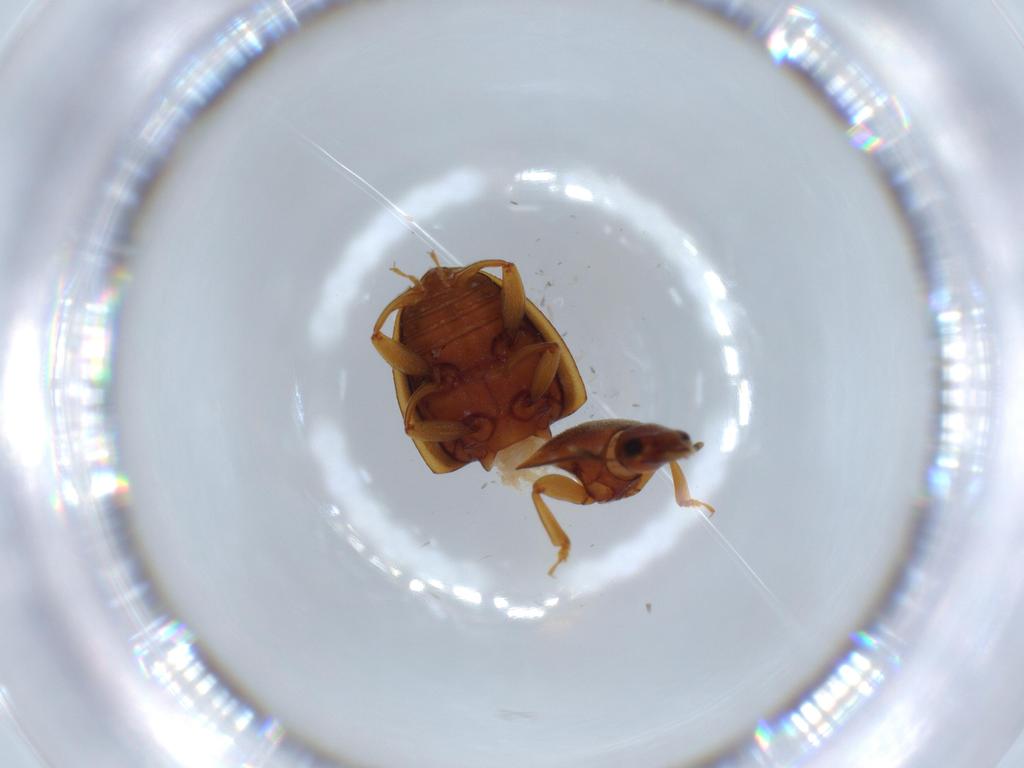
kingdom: Animalia
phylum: Arthropoda
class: Insecta
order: Coleoptera
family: Nitidulidae
